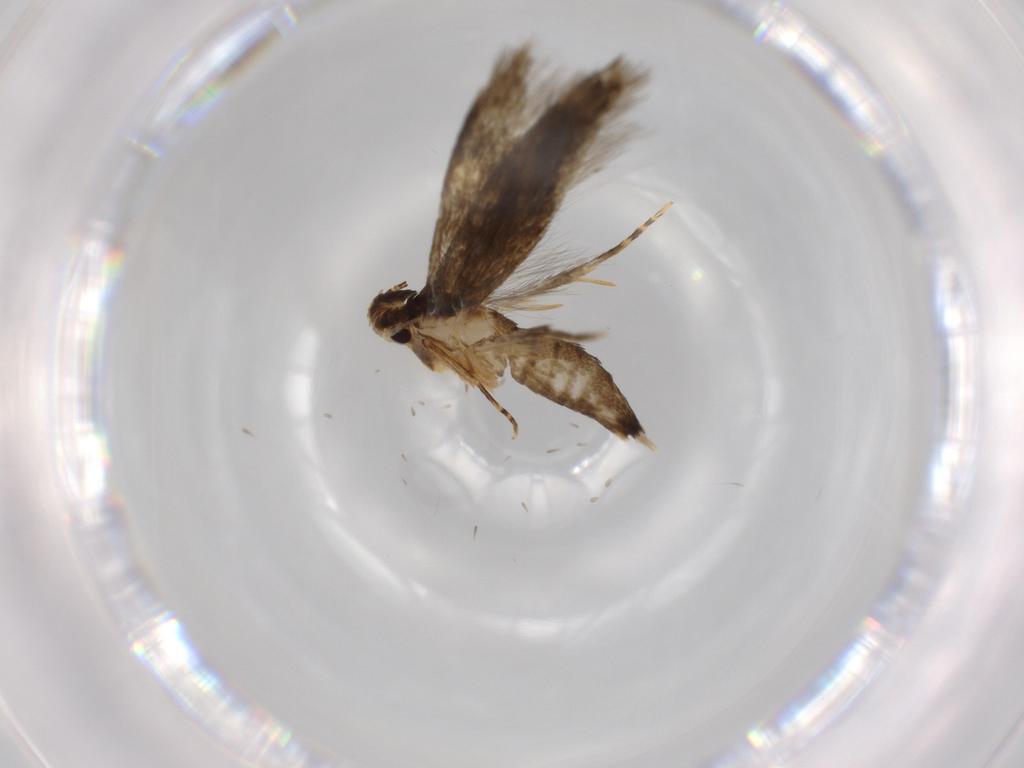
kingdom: Animalia
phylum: Arthropoda
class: Insecta
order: Lepidoptera
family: Tineidae
